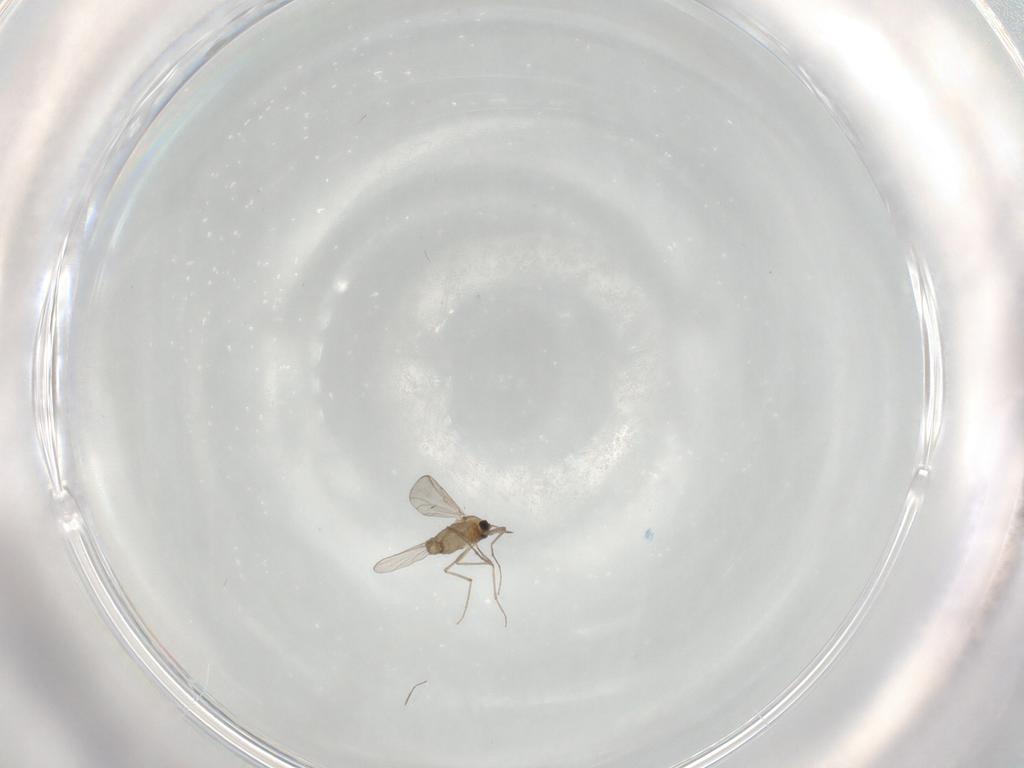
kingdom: Animalia
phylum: Arthropoda
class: Insecta
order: Diptera
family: Chironomidae
